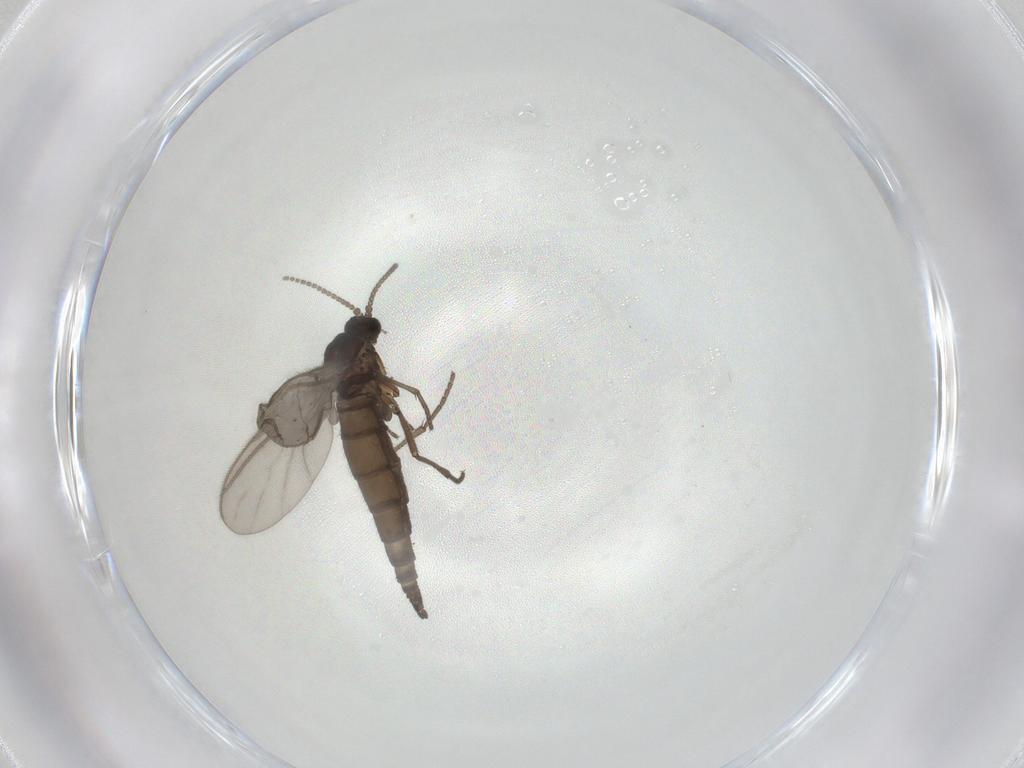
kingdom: Animalia
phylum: Arthropoda
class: Insecta
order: Diptera
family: Sciaridae
